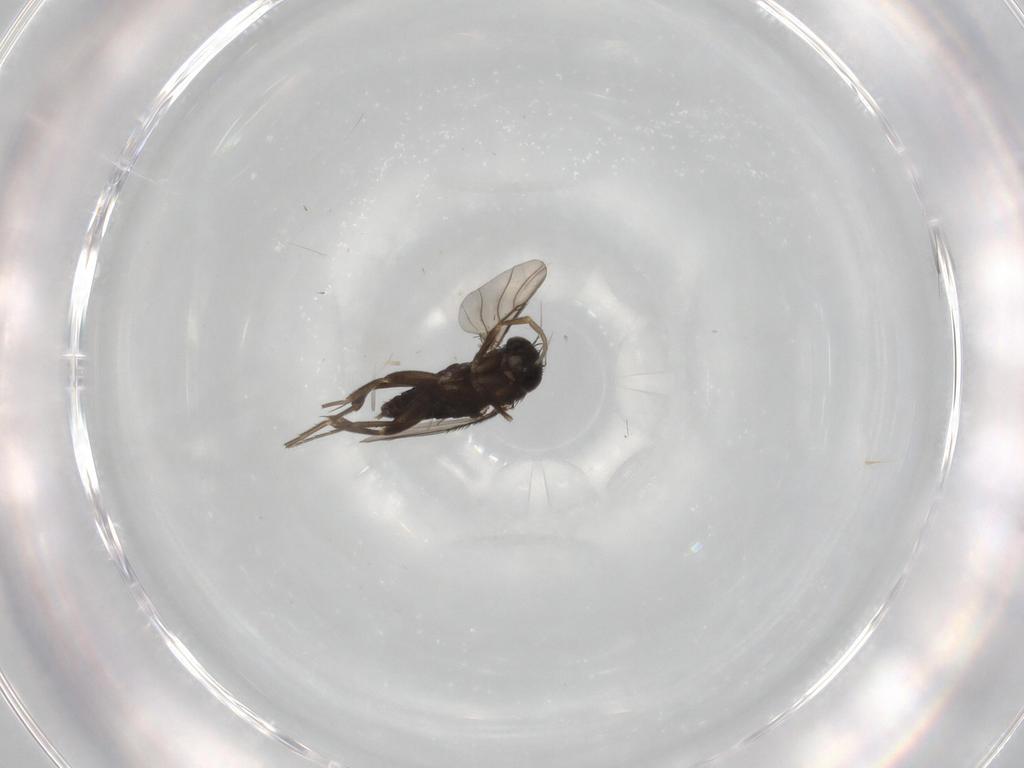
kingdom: Animalia
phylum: Arthropoda
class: Insecta
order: Diptera
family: Phoridae
